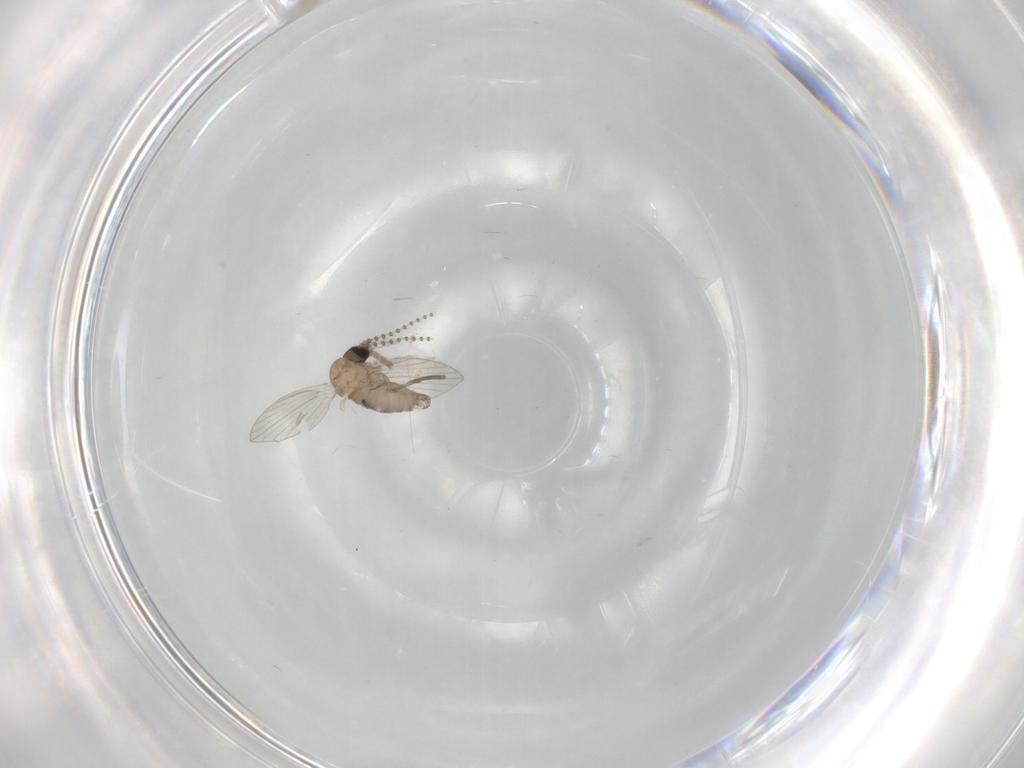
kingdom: Animalia
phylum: Arthropoda
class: Insecta
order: Diptera
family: Psychodidae
